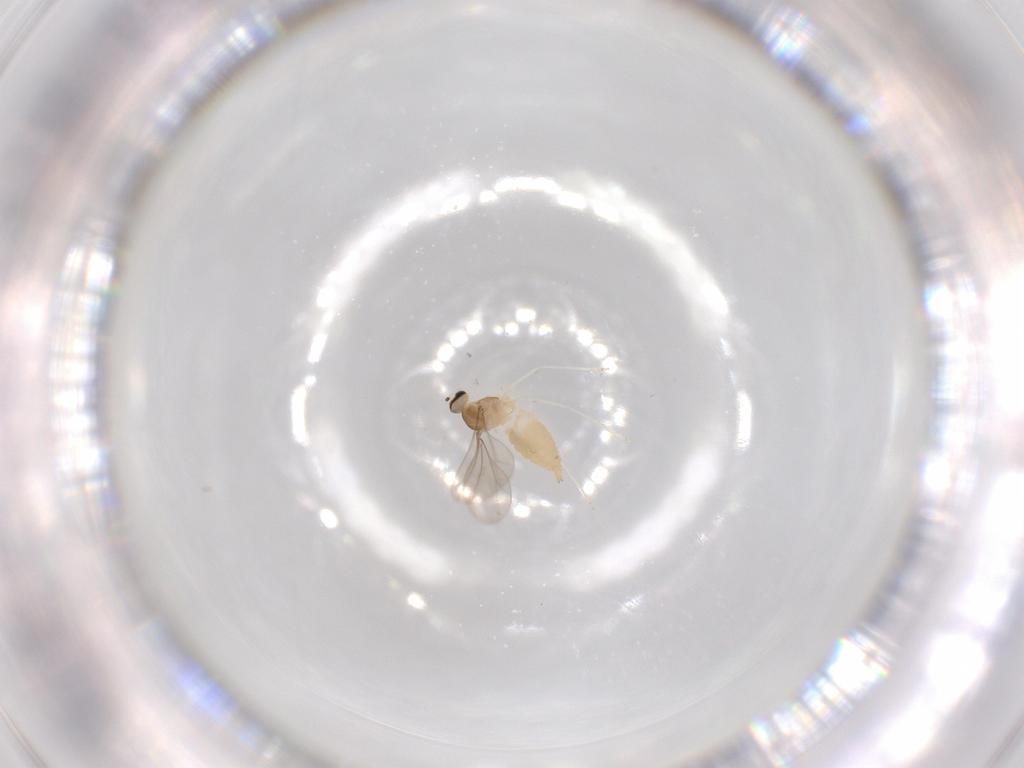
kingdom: Animalia
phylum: Arthropoda
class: Insecta
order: Diptera
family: Cecidomyiidae
